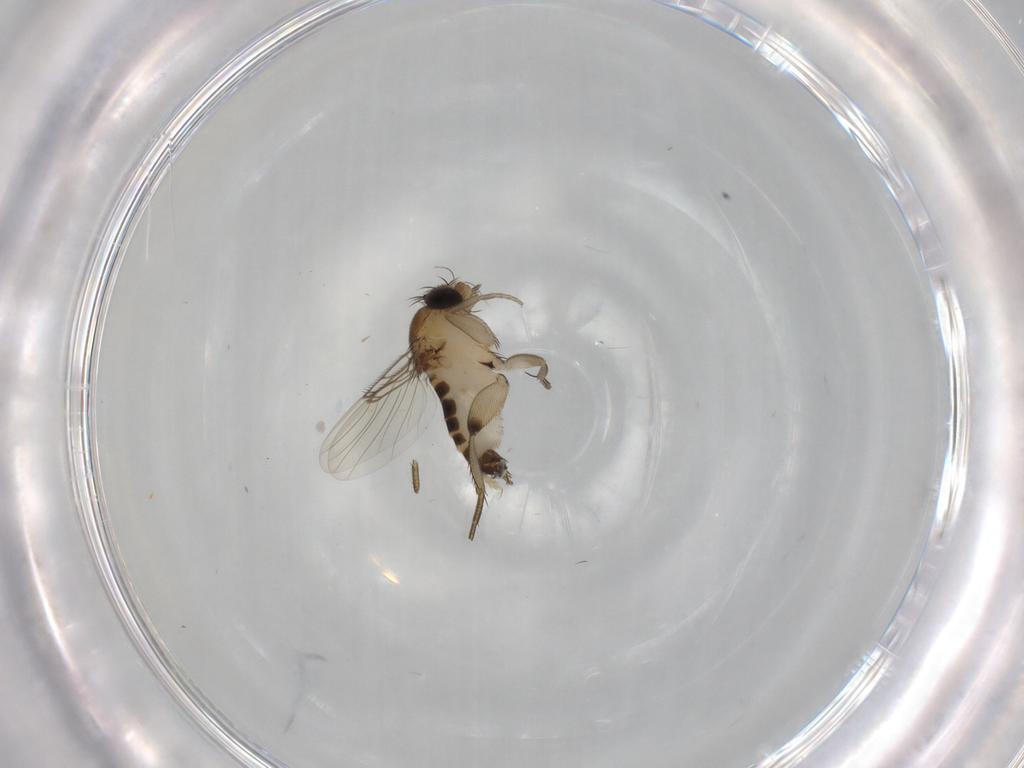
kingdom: Animalia
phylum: Arthropoda
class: Insecta
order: Diptera
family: Phoridae
